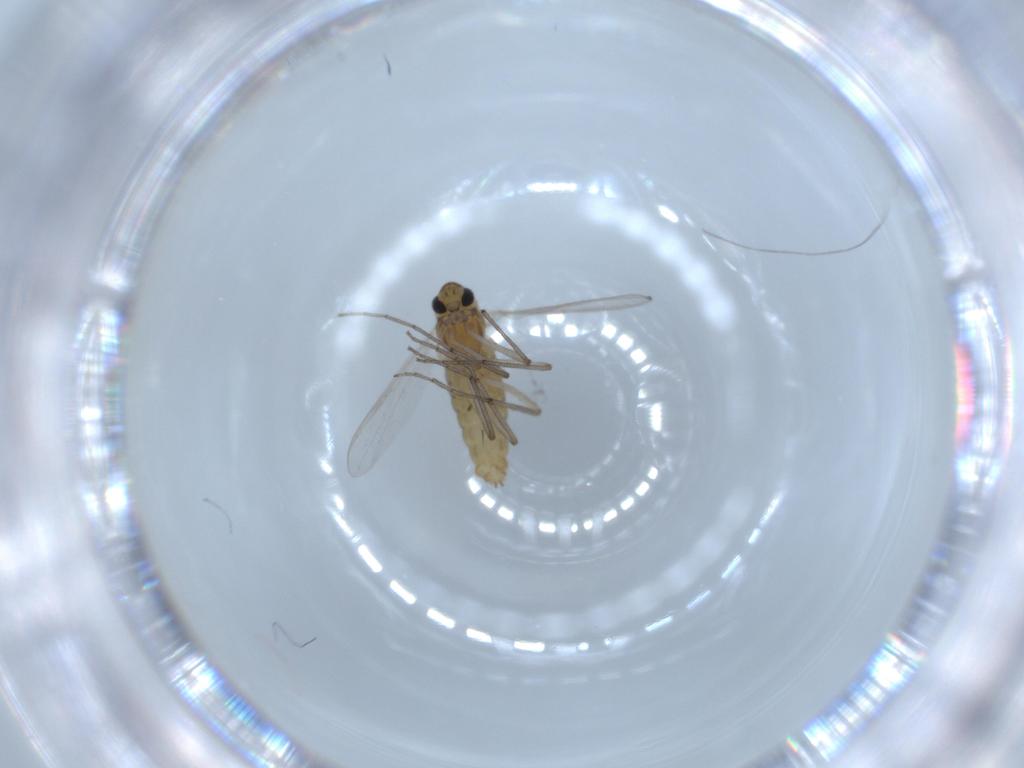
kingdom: Animalia
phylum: Arthropoda
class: Insecta
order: Diptera
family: Chironomidae
